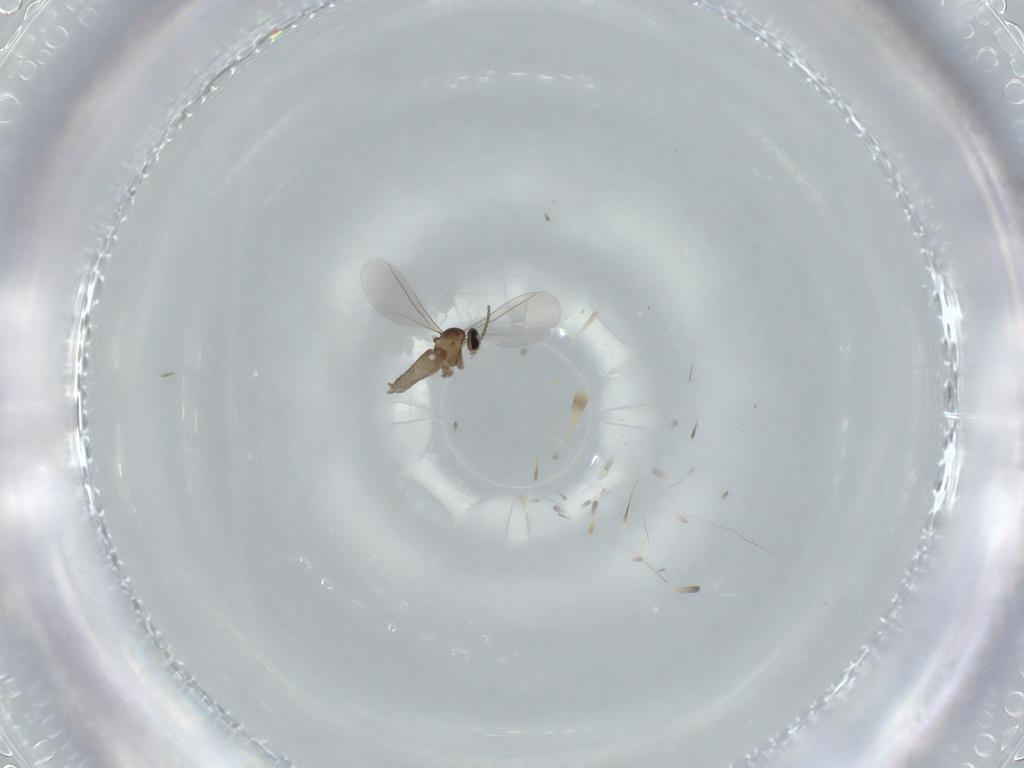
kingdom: Animalia
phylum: Arthropoda
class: Insecta
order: Diptera
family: Cecidomyiidae
